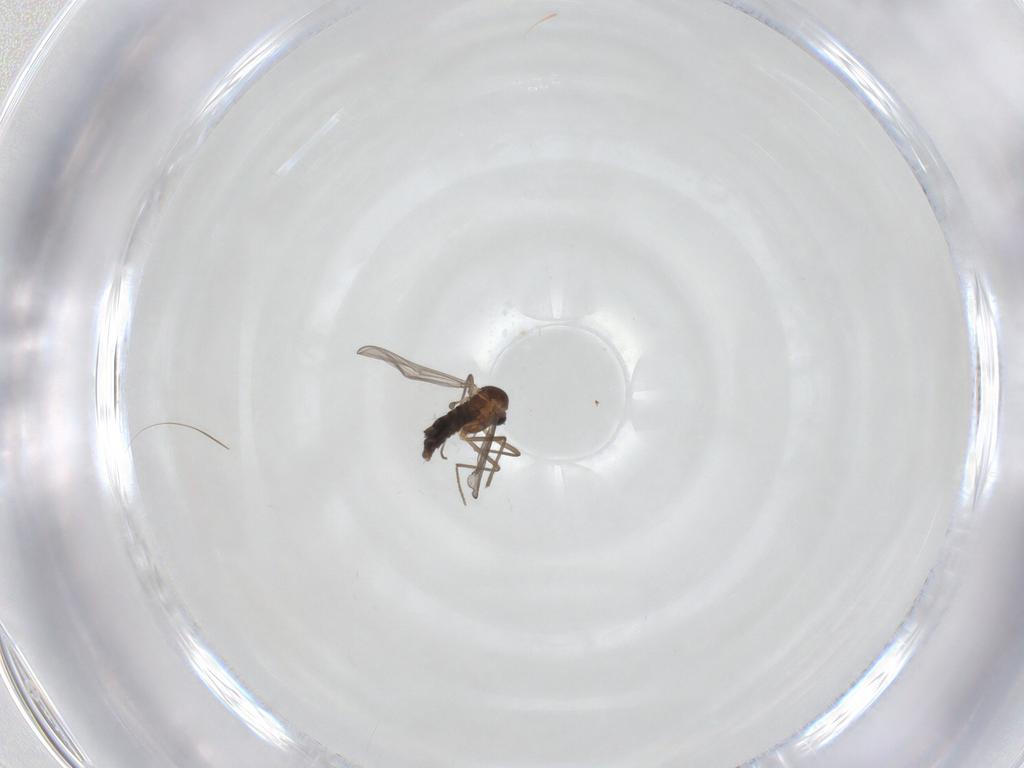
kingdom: Animalia
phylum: Arthropoda
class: Insecta
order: Diptera
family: Chironomidae
